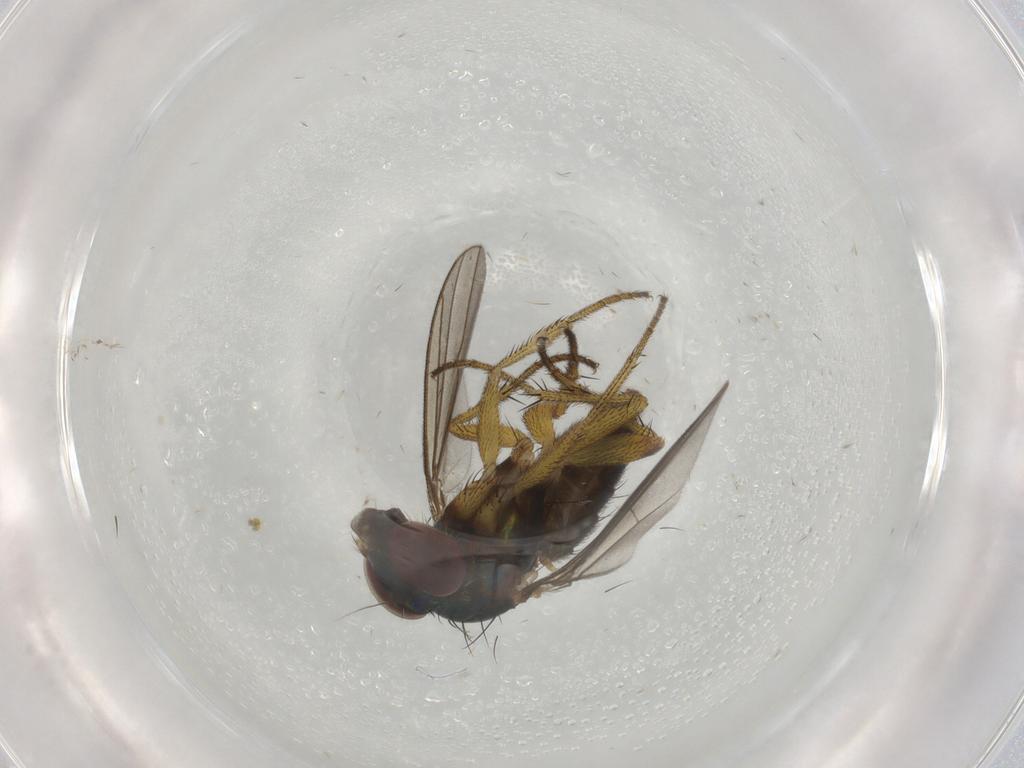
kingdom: Animalia
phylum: Arthropoda
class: Insecta
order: Diptera
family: Dolichopodidae
